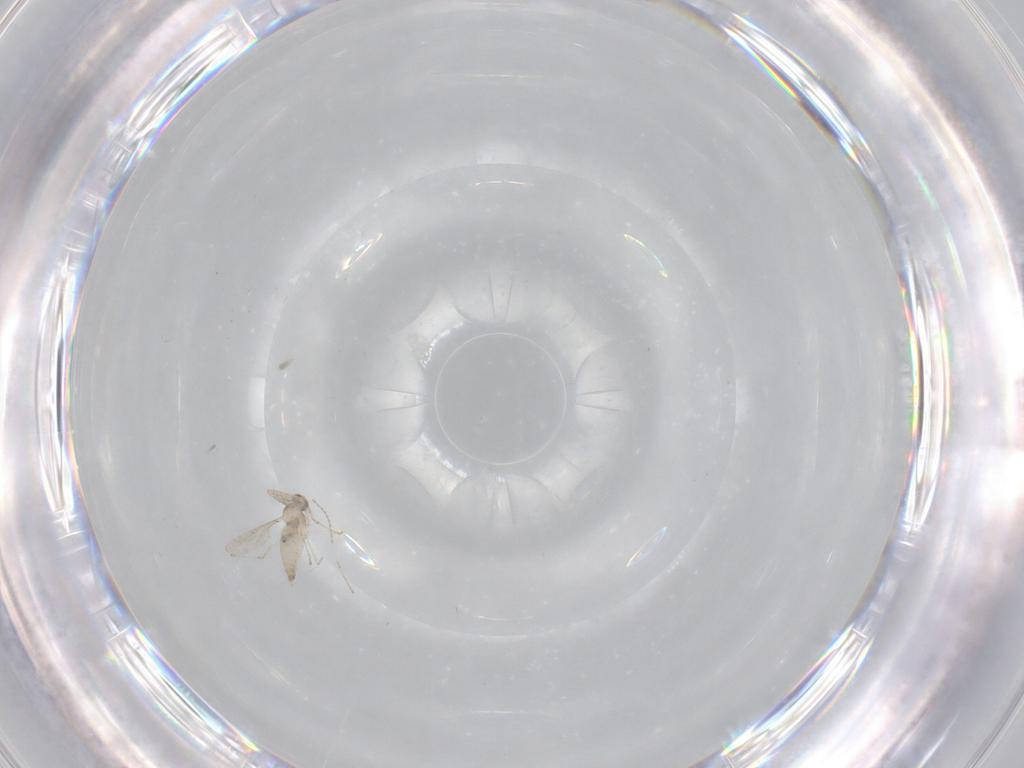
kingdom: Animalia
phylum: Arthropoda
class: Insecta
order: Diptera
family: Cecidomyiidae
